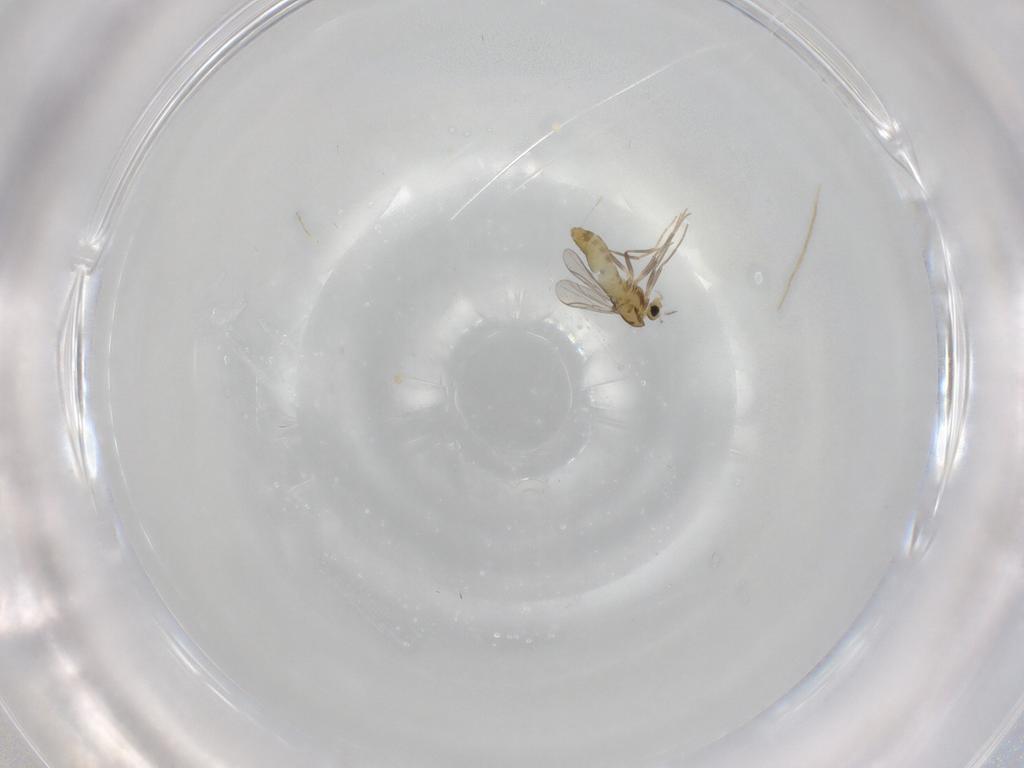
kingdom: Animalia
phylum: Arthropoda
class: Insecta
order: Diptera
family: Chironomidae
